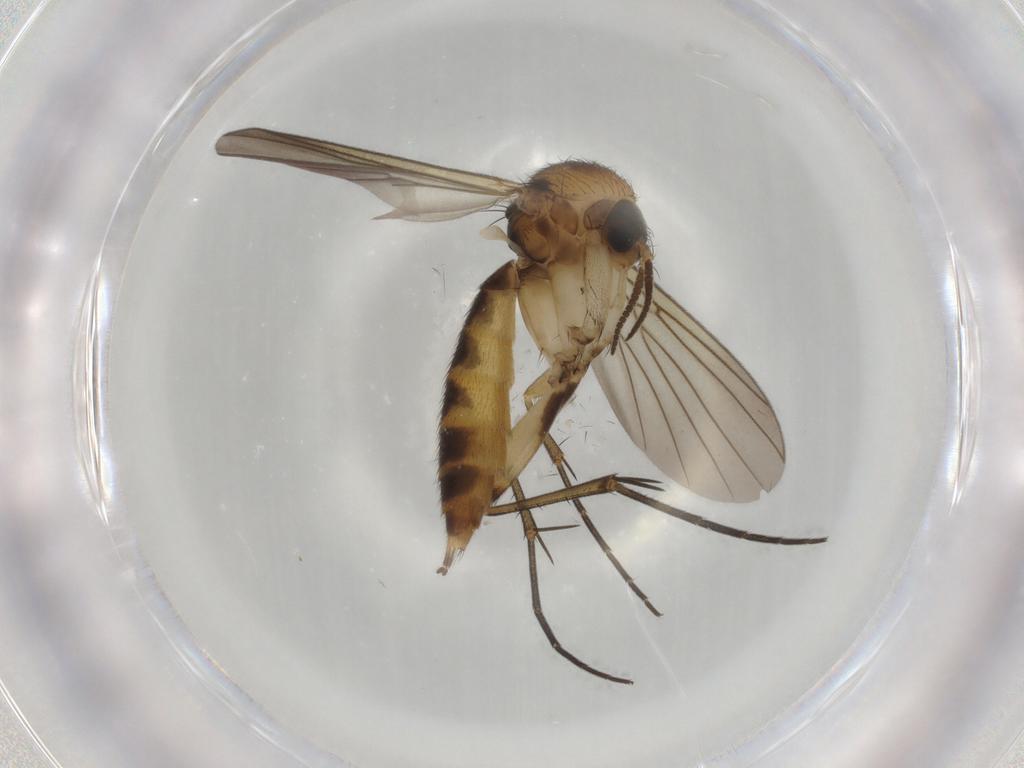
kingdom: Animalia
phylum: Arthropoda
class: Insecta
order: Diptera
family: Mycetophilidae
